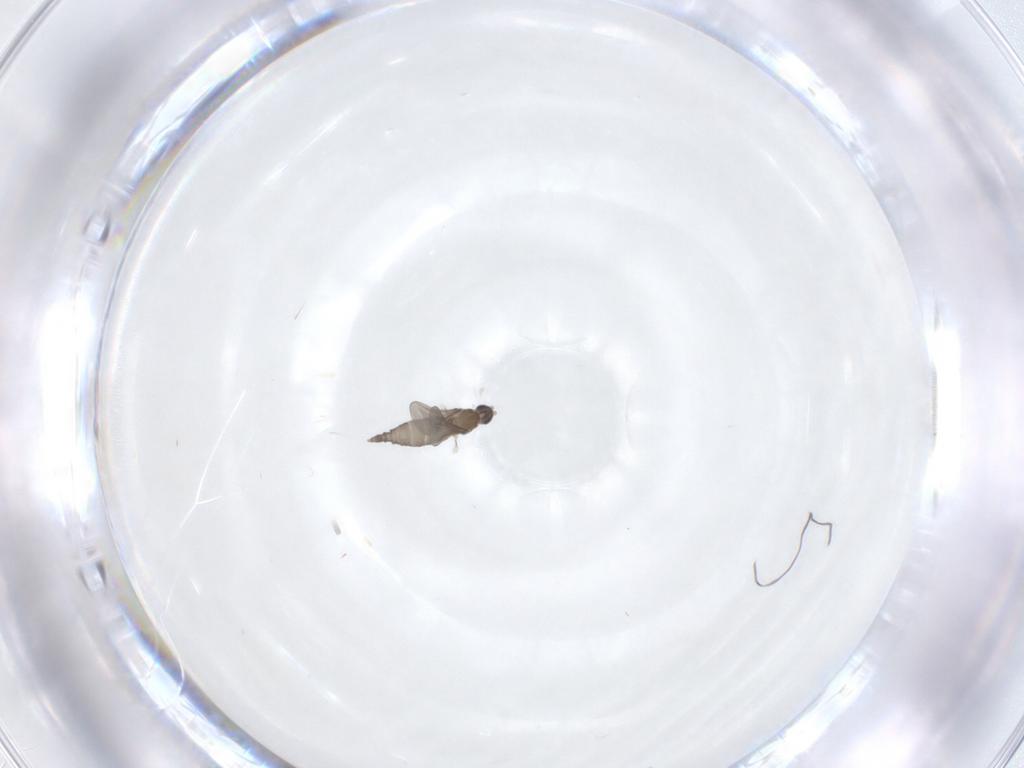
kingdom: Animalia
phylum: Arthropoda
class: Insecta
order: Diptera
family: Cecidomyiidae
